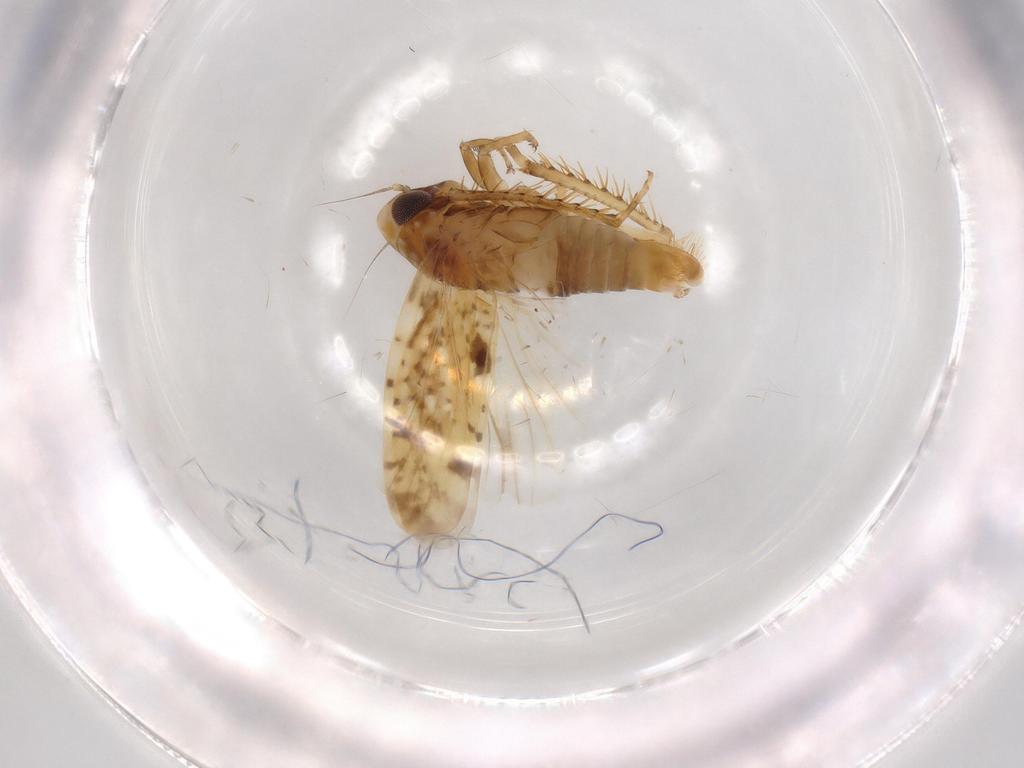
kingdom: Animalia
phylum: Arthropoda
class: Insecta
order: Hemiptera
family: Cicadellidae
